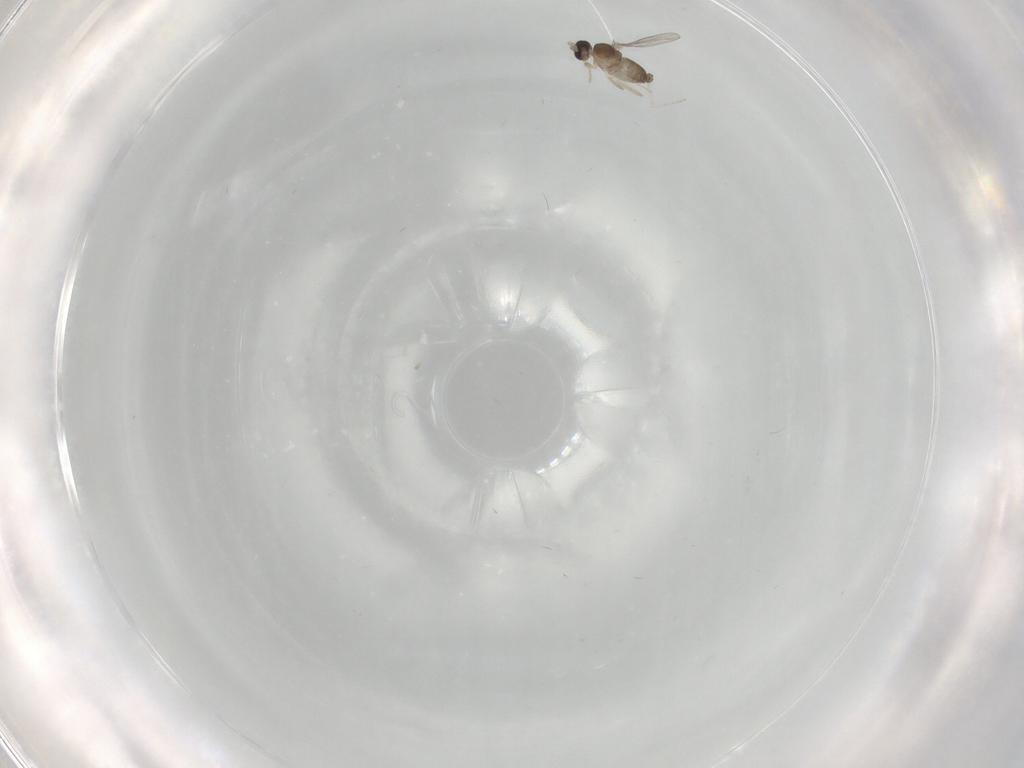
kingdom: Animalia
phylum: Arthropoda
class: Insecta
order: Diptera
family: Cecidomyiidae
